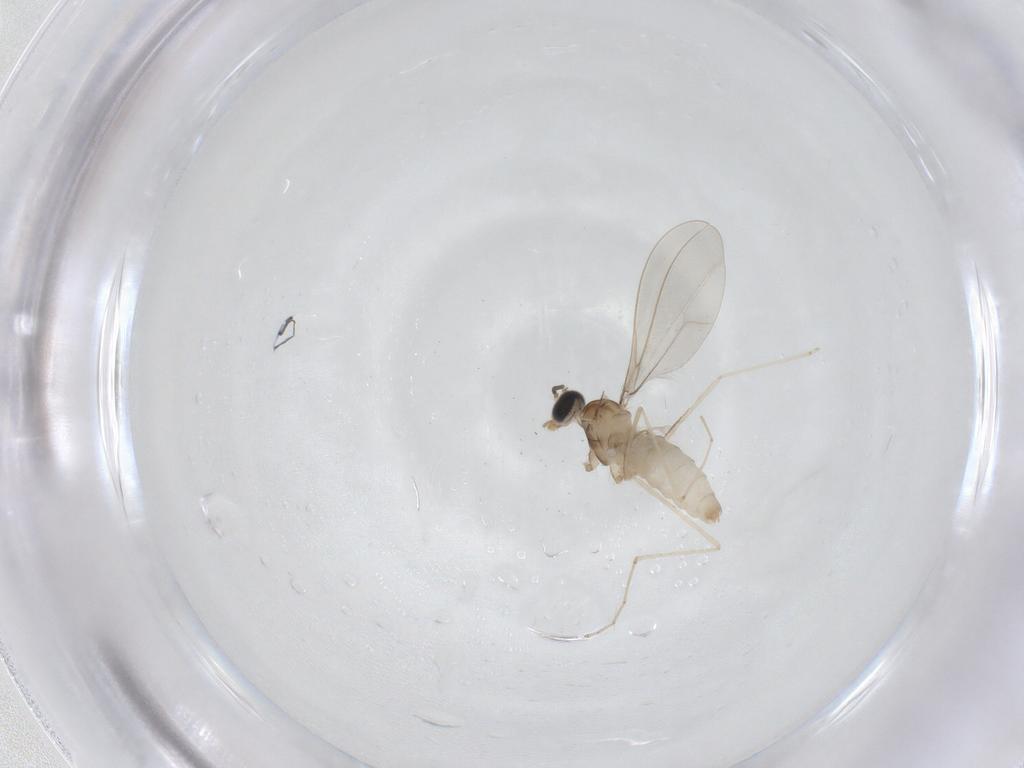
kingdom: Animalia
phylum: Arthropoda
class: Insecta
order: Diptera
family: Cecidomyiidae
